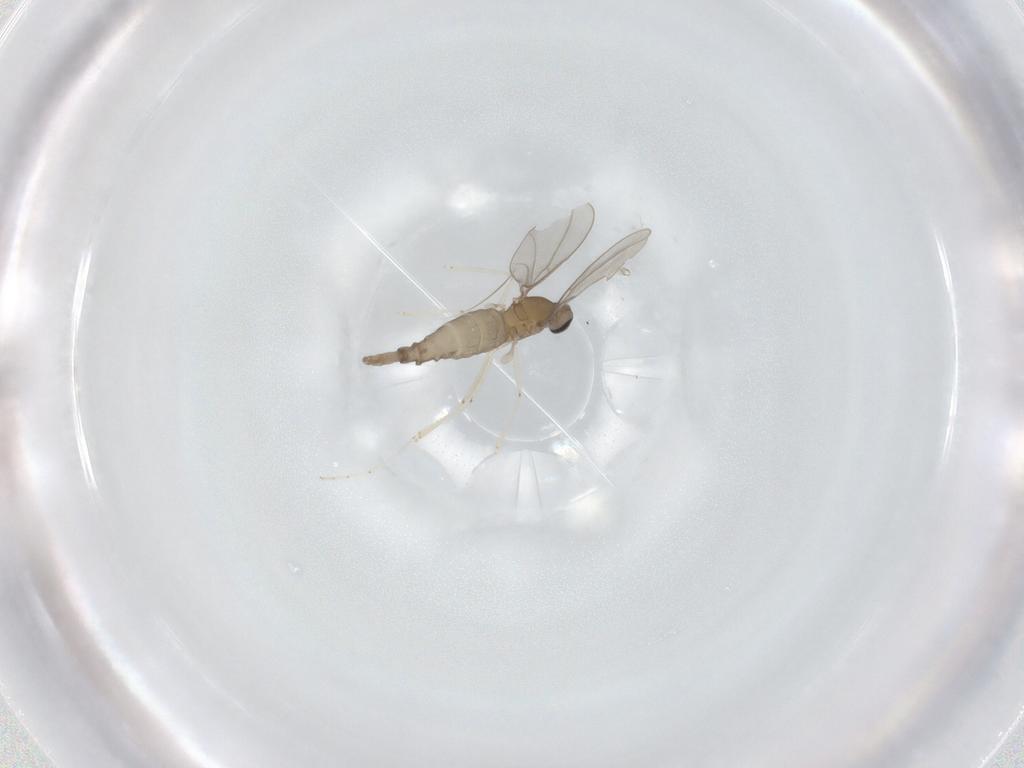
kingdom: Animalia
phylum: Arthropoda
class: Insecta
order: Diptera
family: Cecidomyiidae
